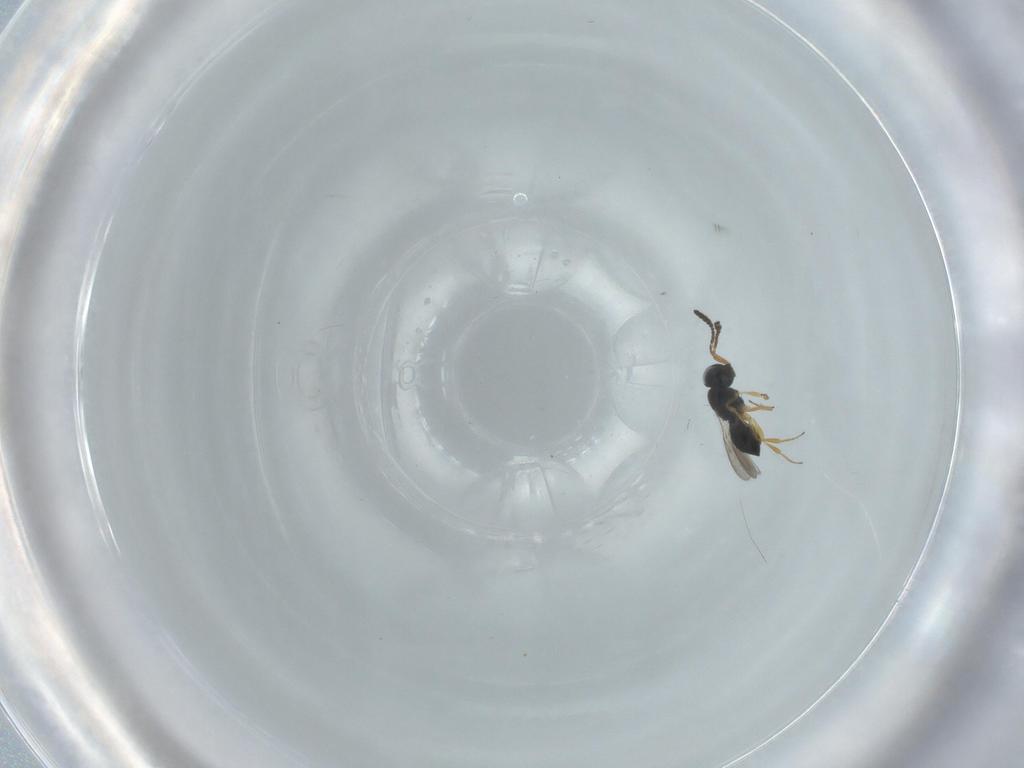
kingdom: Animalia
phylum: Arthropoda
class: Insecta
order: Hymenoptera
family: Scelionidae
